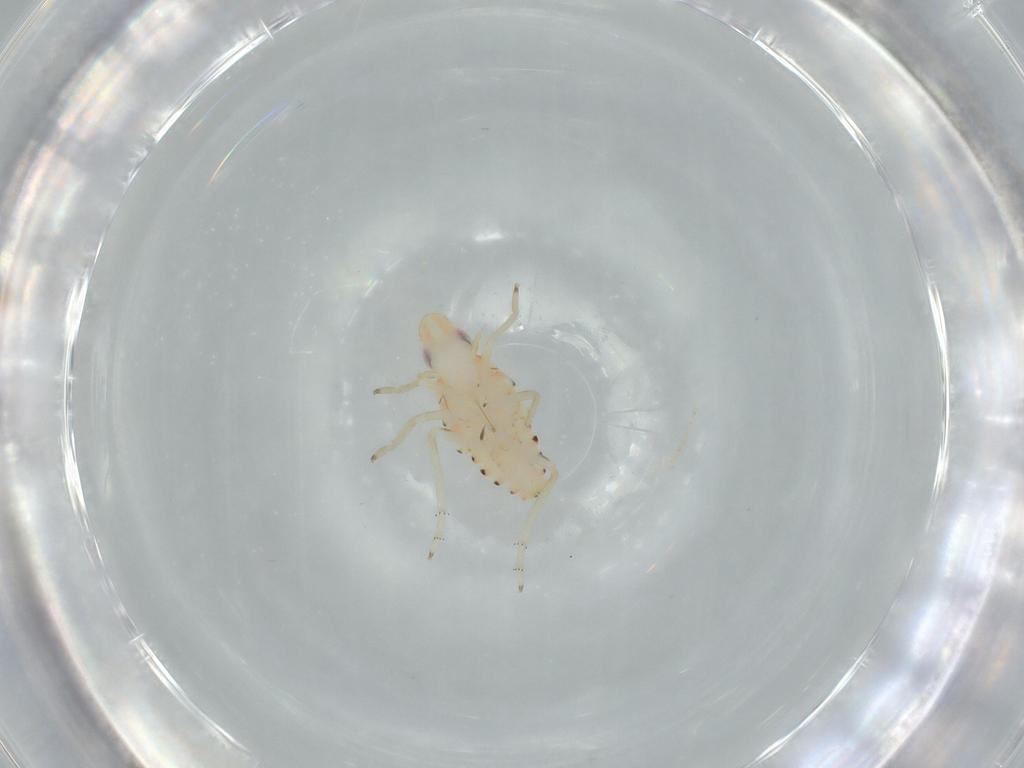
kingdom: Animalia
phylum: Arthropoda
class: Insecta
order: Hemiptera
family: Tropiduchidae
